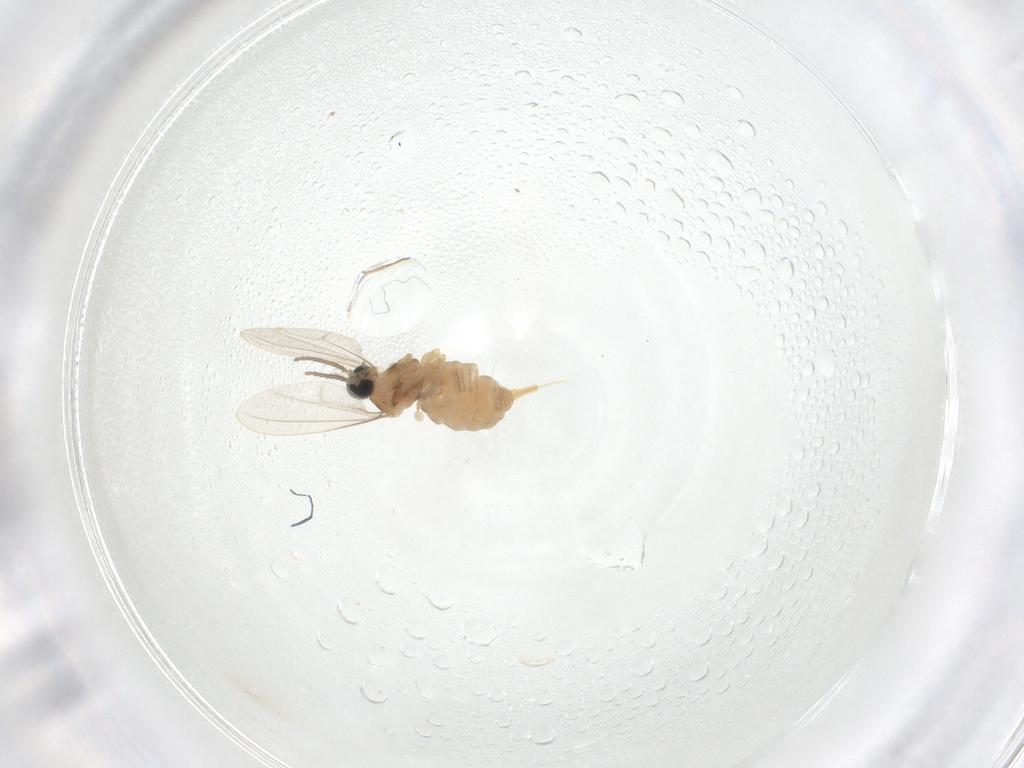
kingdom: Animalia
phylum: Arthropoda
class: Insecta
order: Diptera
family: Cecidomyiidae
